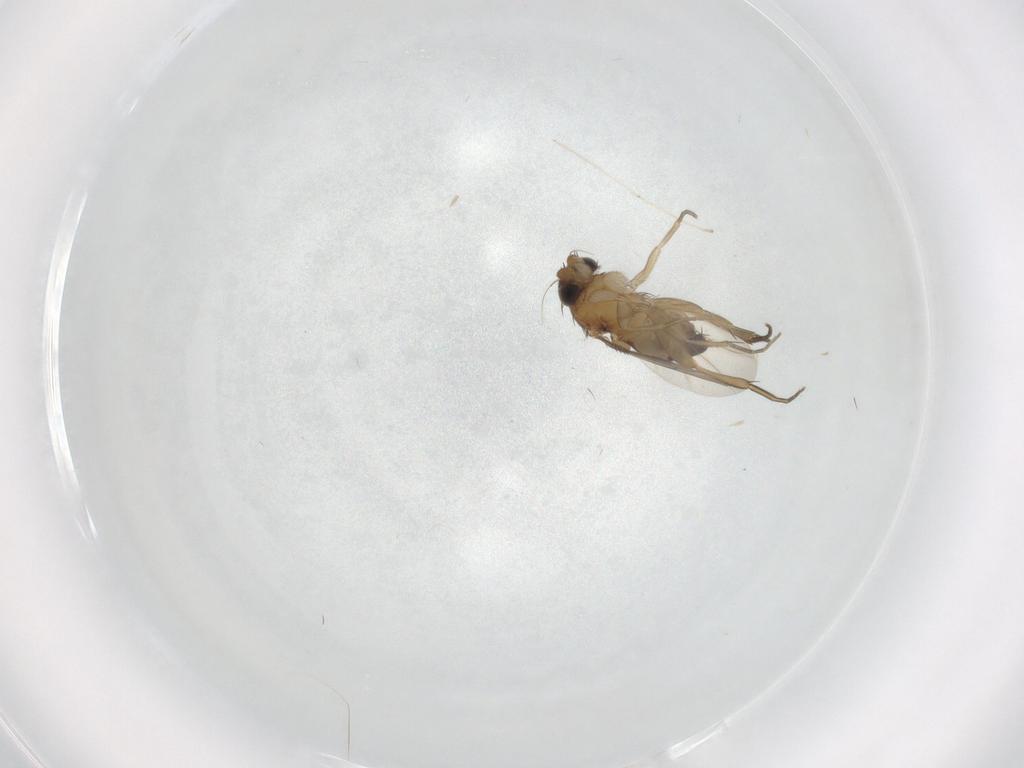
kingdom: Animalia
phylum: Arthropoda
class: Insecta
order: Diptera
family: Phoridae
